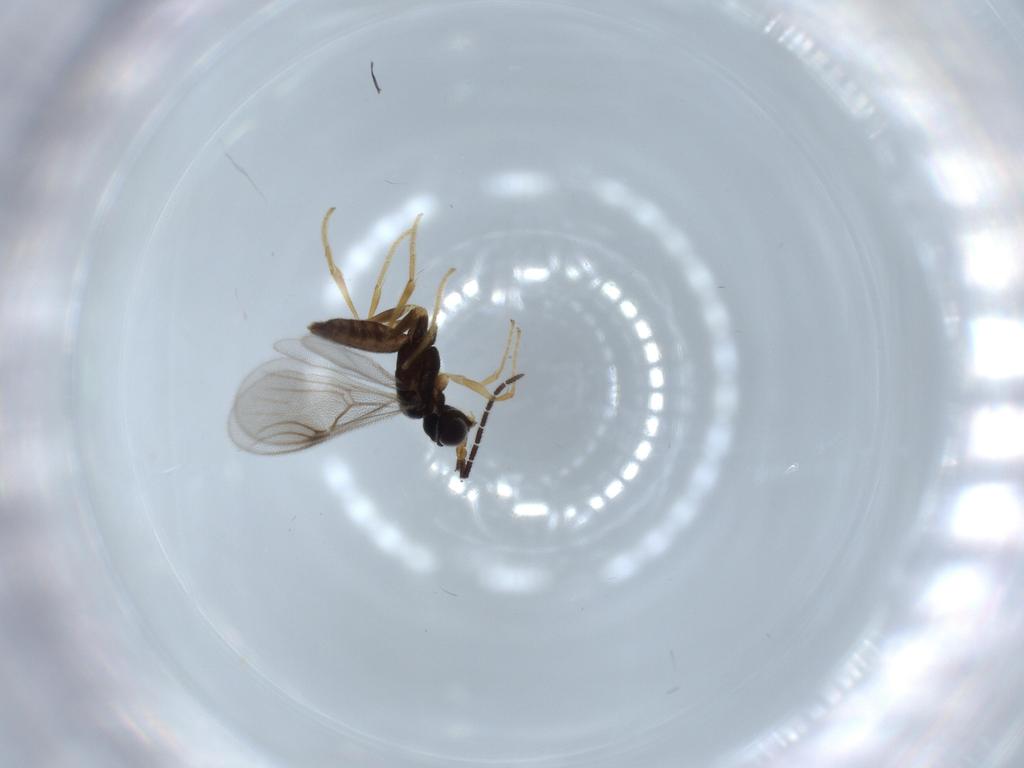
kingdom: Animalia
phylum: Arthropoda
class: Insecta
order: Hymenoptera
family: Dryinidae
